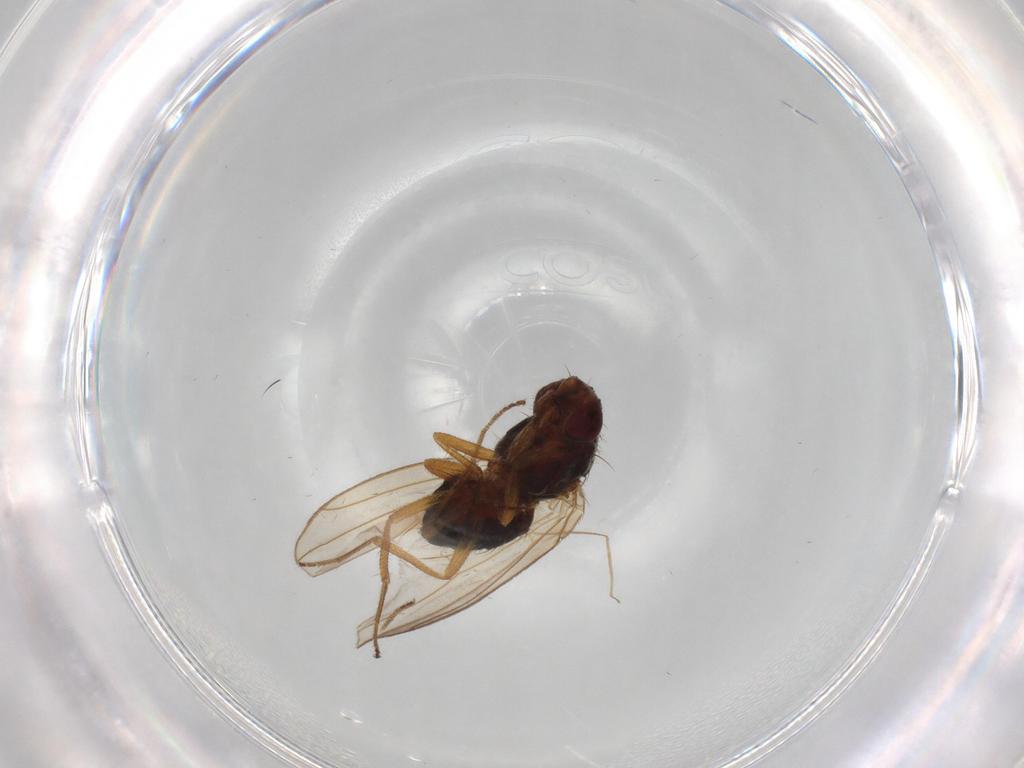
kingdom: Animalia
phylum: Arthropoda
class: Insecta
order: Diptera
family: Drosophilidae
